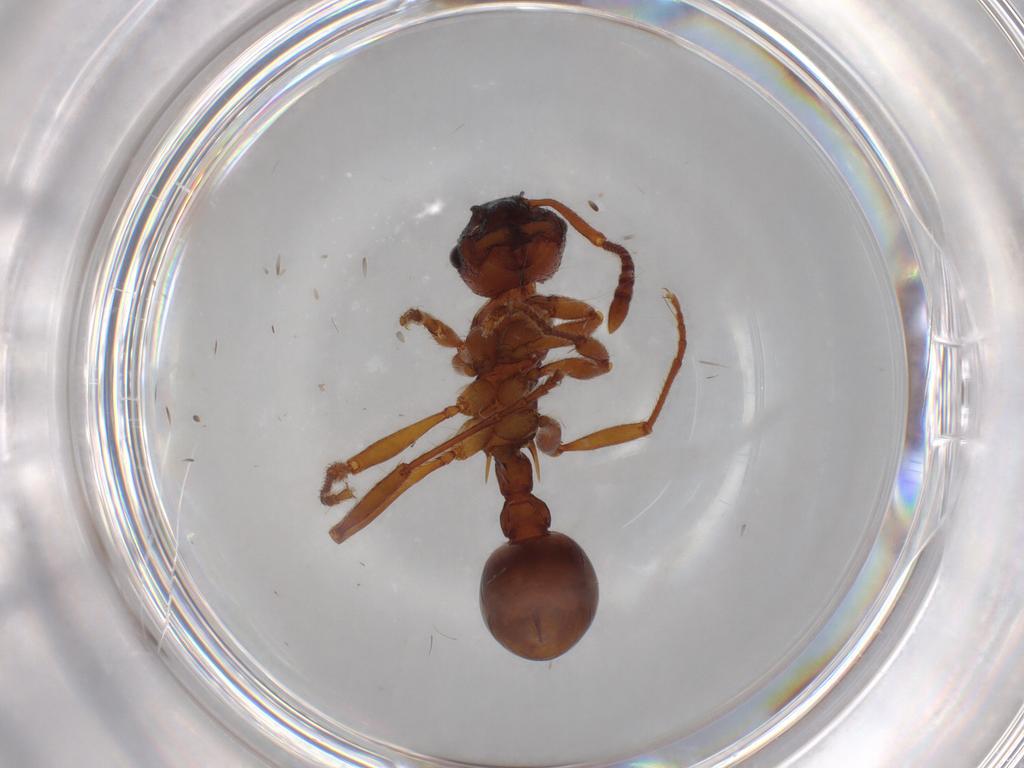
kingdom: Animalia
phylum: Arthropoda
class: Insecta
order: Hymenoptera
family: Formicidae
